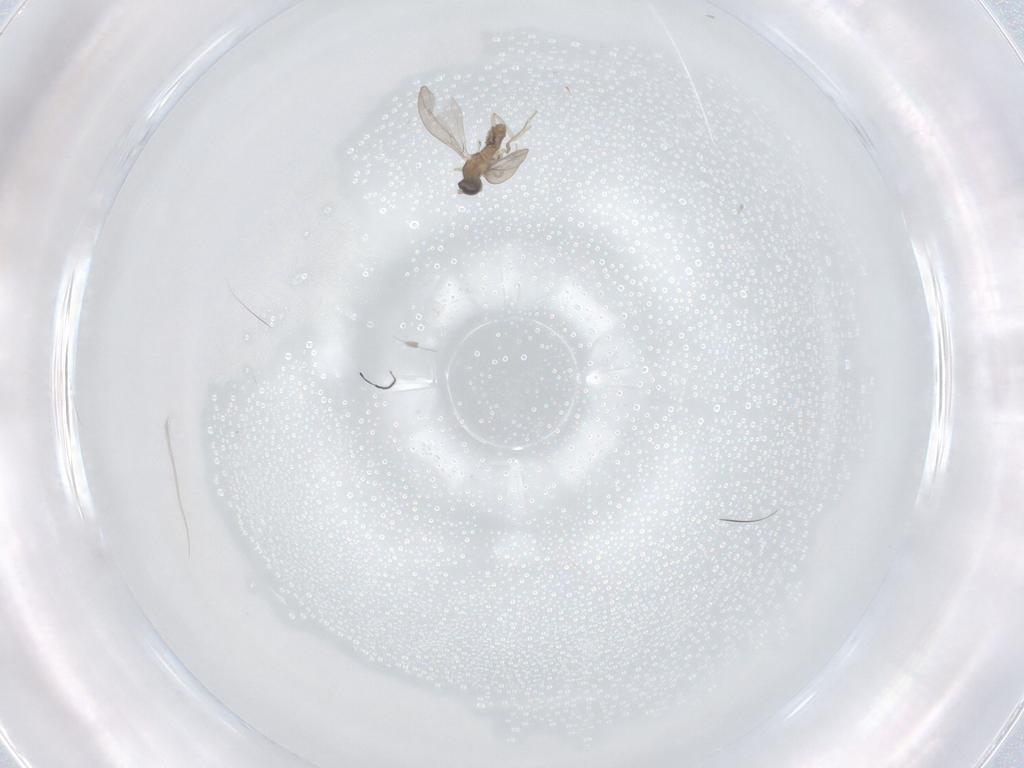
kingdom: Animalia
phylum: Arthropoda
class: Insecta
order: Diptera
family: Cecidomyiidae
